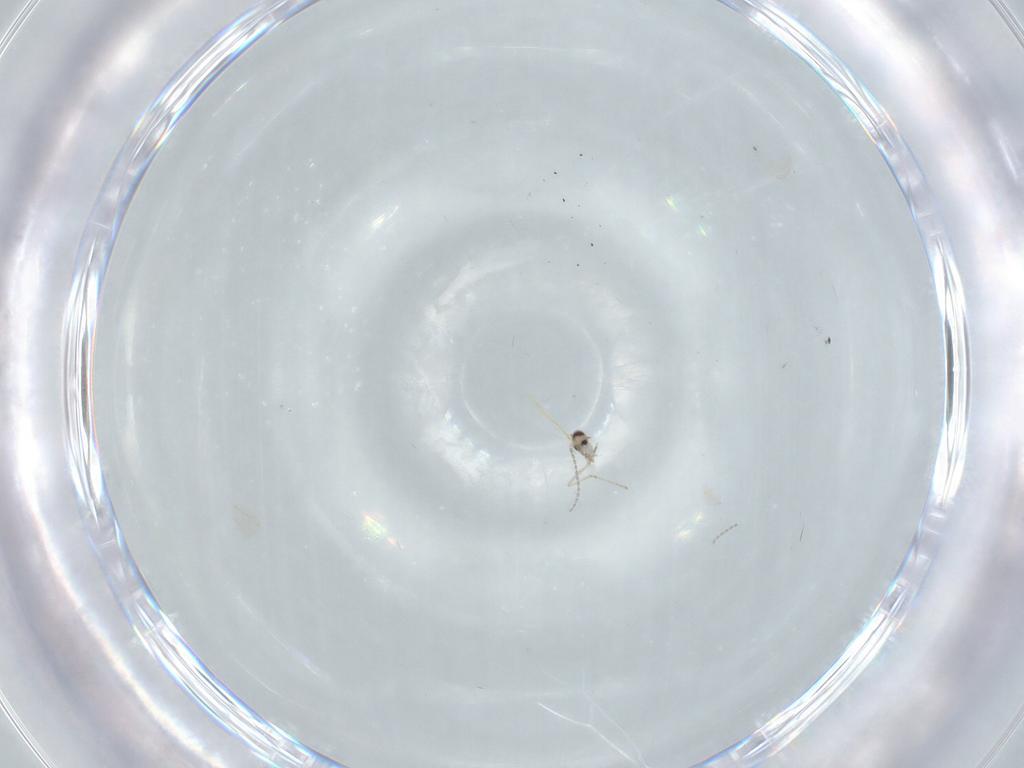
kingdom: Animalia
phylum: Arthropoda
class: Insecta
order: Diptera
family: Cecidomyiidae
